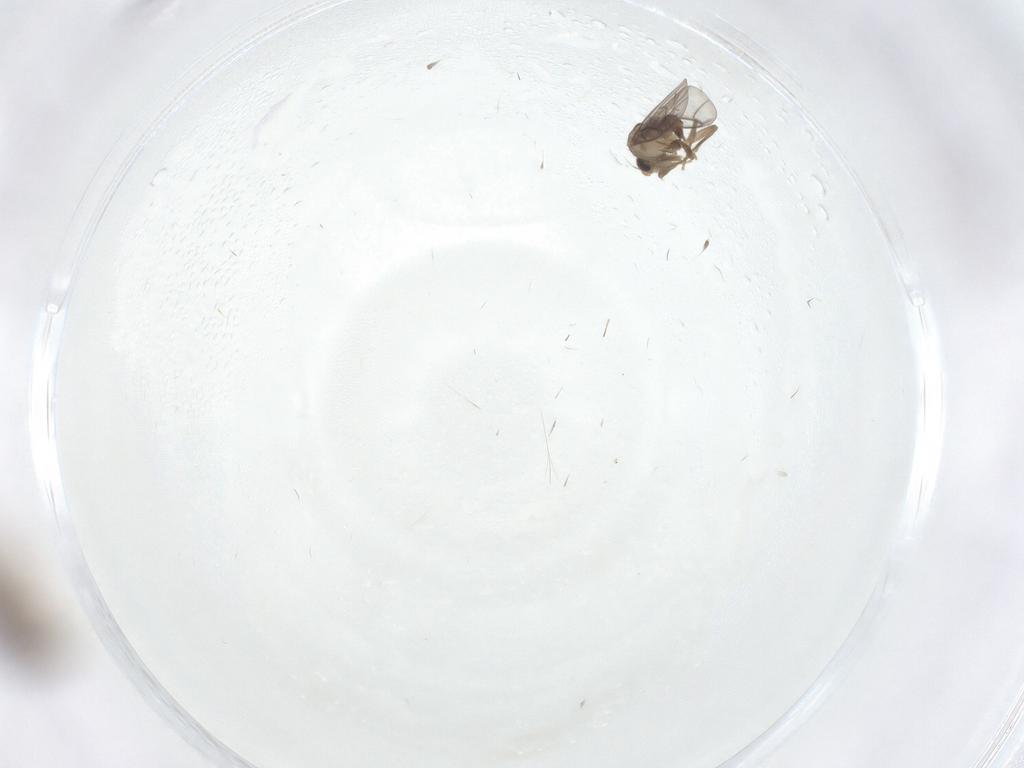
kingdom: Animalia
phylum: Arthropoda
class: Insecta
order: Diptera
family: Cecidomyiidae
